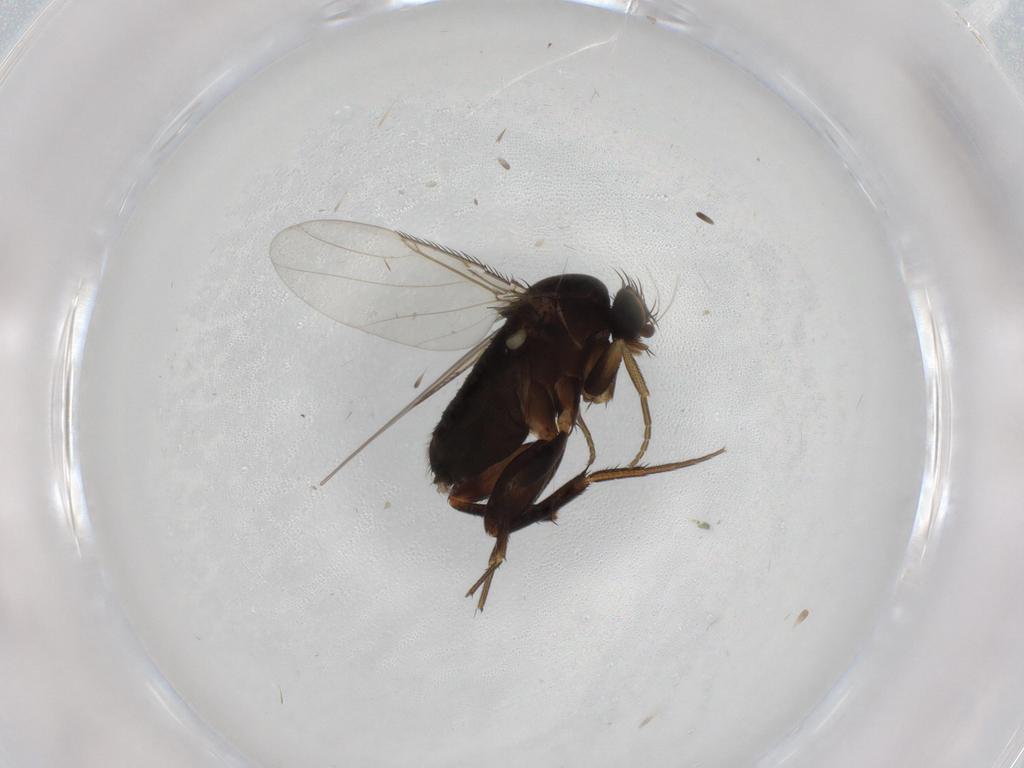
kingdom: Animalia
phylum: Arthropoda
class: Insecta
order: Diptera
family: Phoridae
